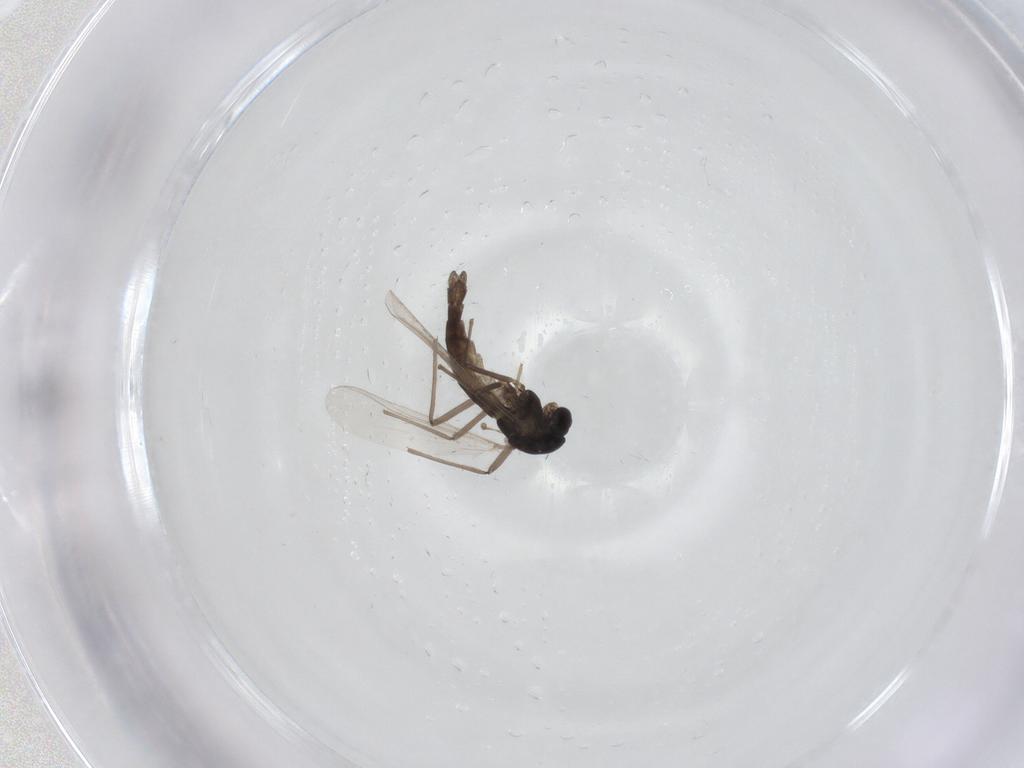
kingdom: Animalia
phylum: Arthropoda
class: Insecta
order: Diptera
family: Chironomidae
